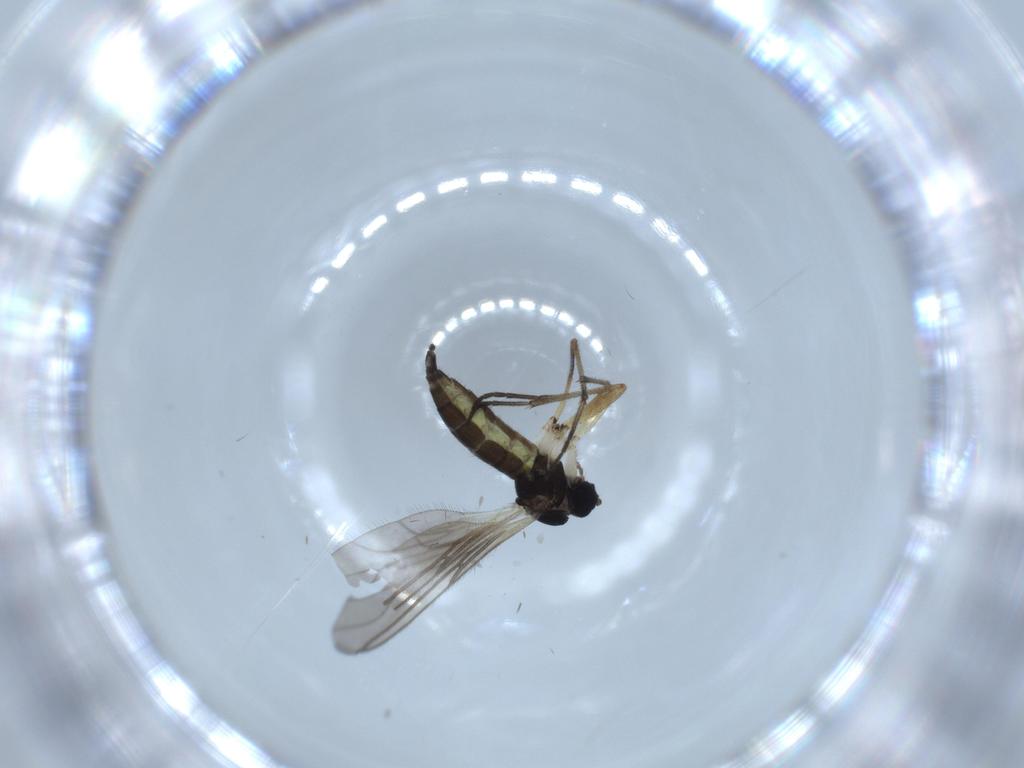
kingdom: Animalia
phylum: Arthropoda
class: Insecta
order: Diptera
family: Sciaridae
